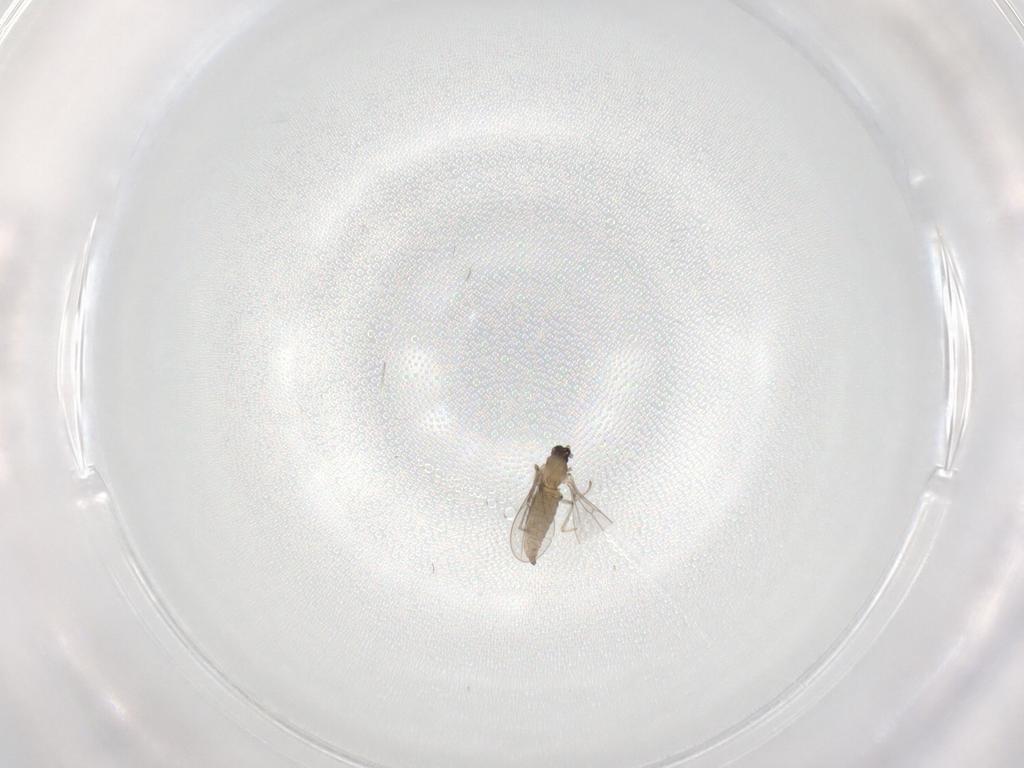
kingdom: Animalia
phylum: Arthropoda
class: Insecta
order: Diptera
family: Cecidomyiidae
